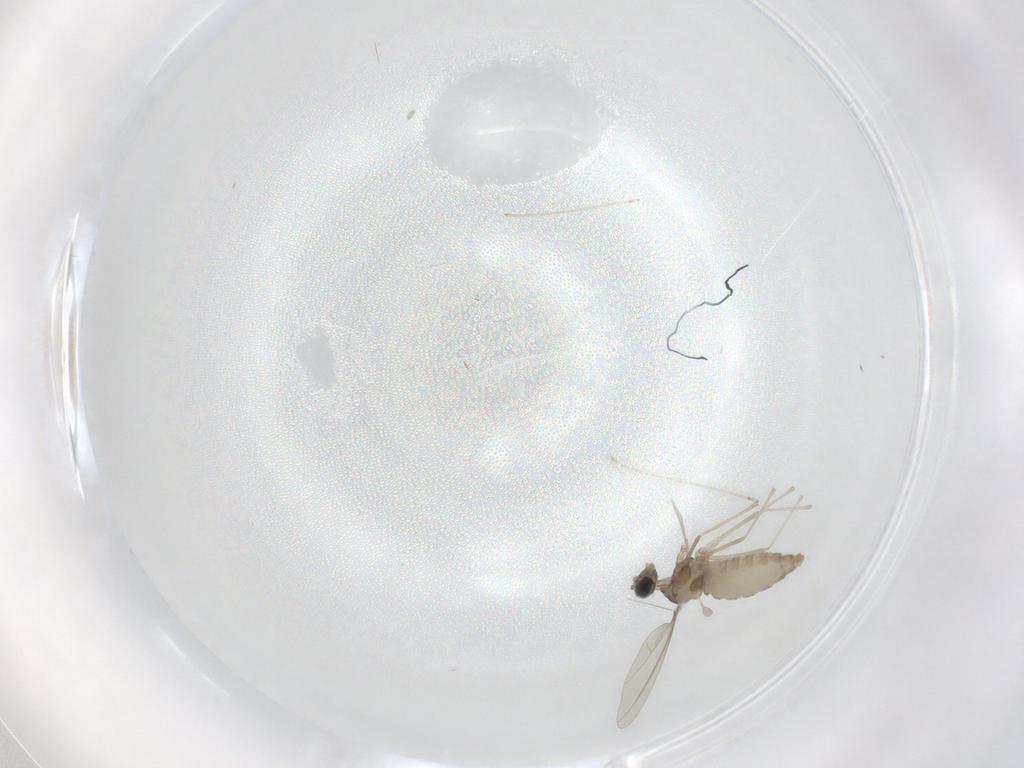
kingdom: Animalia
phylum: Arthropoda
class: Insecta
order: Diptera
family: Cecidomyiidae
